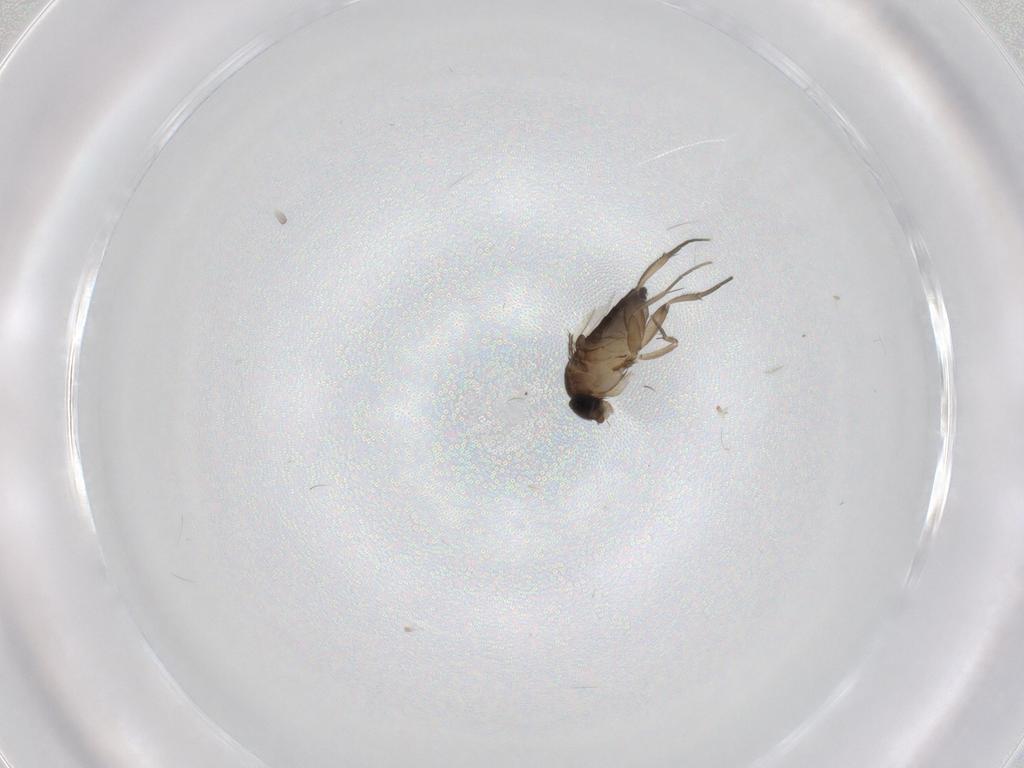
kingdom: Animalia
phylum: Arthropoda
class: Insecta
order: Diptera
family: Phoridae
